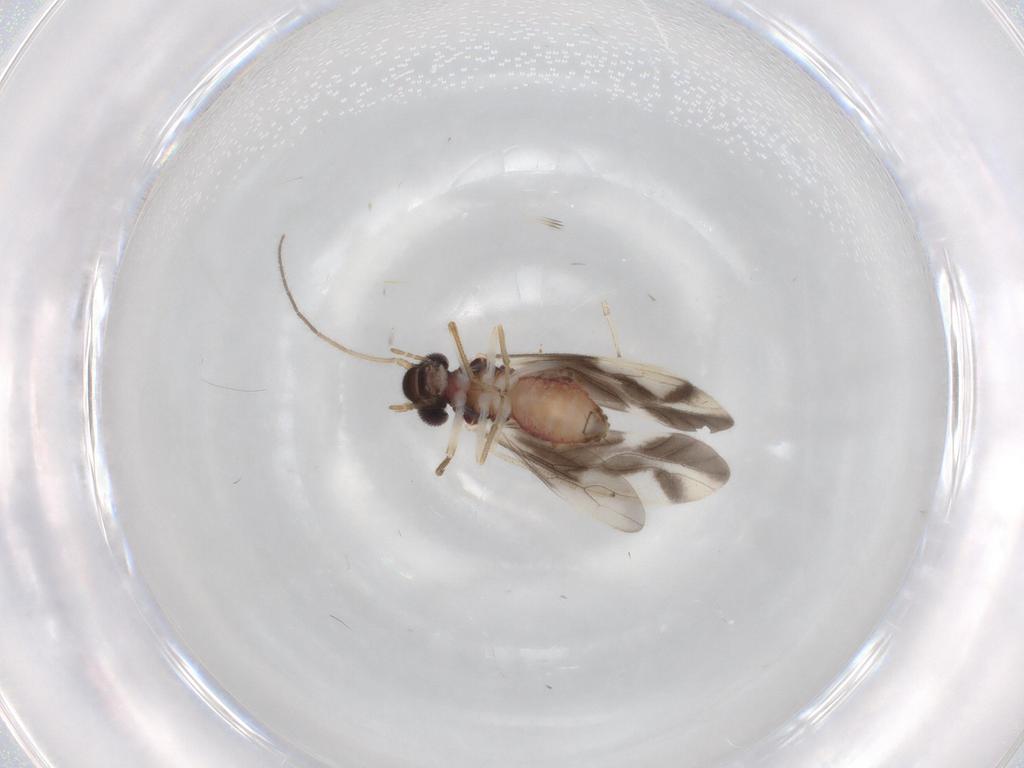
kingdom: Animalia
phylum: Arthropoda
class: Insecta
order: Psocodea
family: Caeciliusidae
